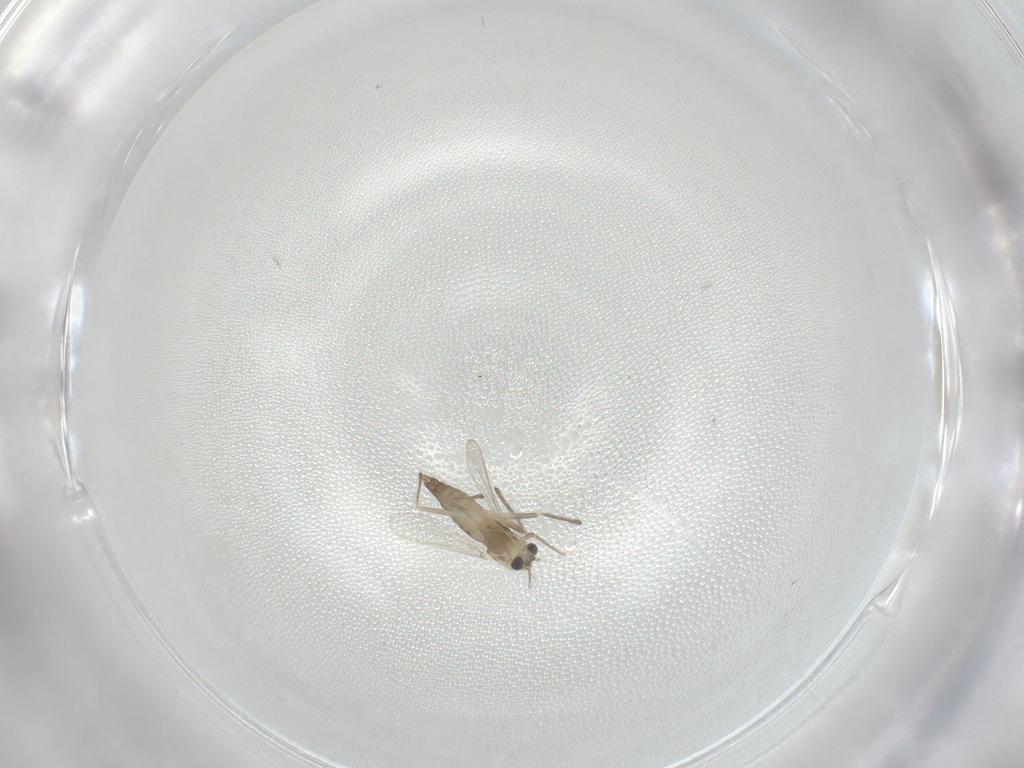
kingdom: Animalia
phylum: Arthropoda
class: Insecta
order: Diptera
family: Chironomidae
